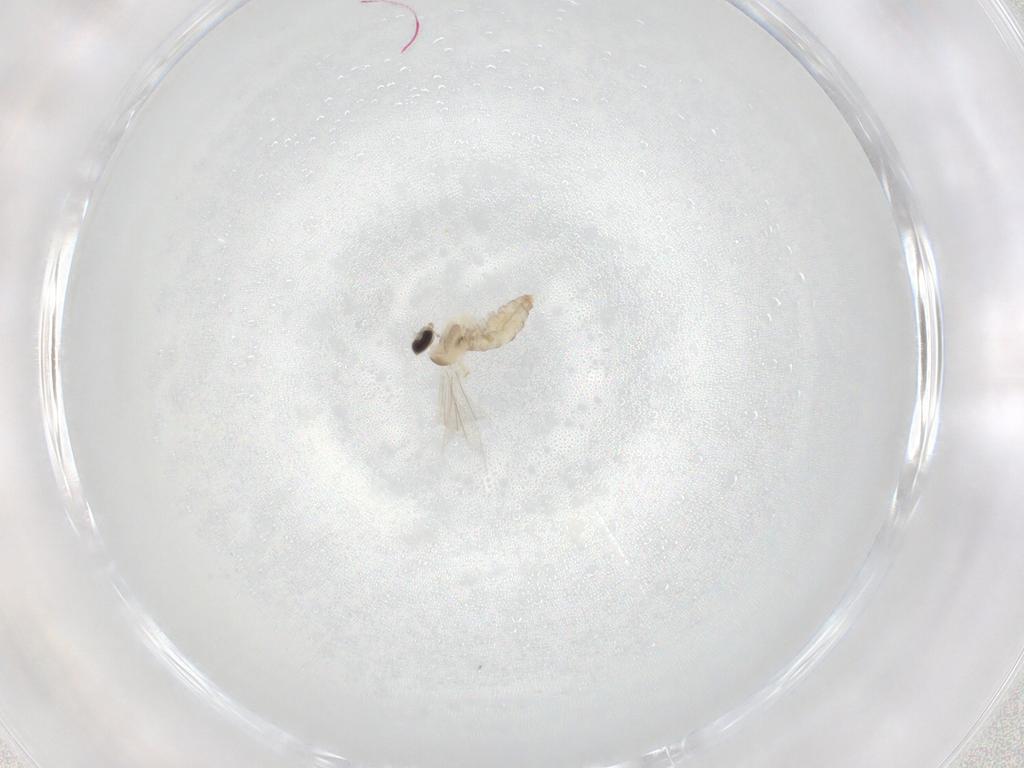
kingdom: Animalia
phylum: Arthropoda
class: Insecta
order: Diptera
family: Cecidomyiidae
